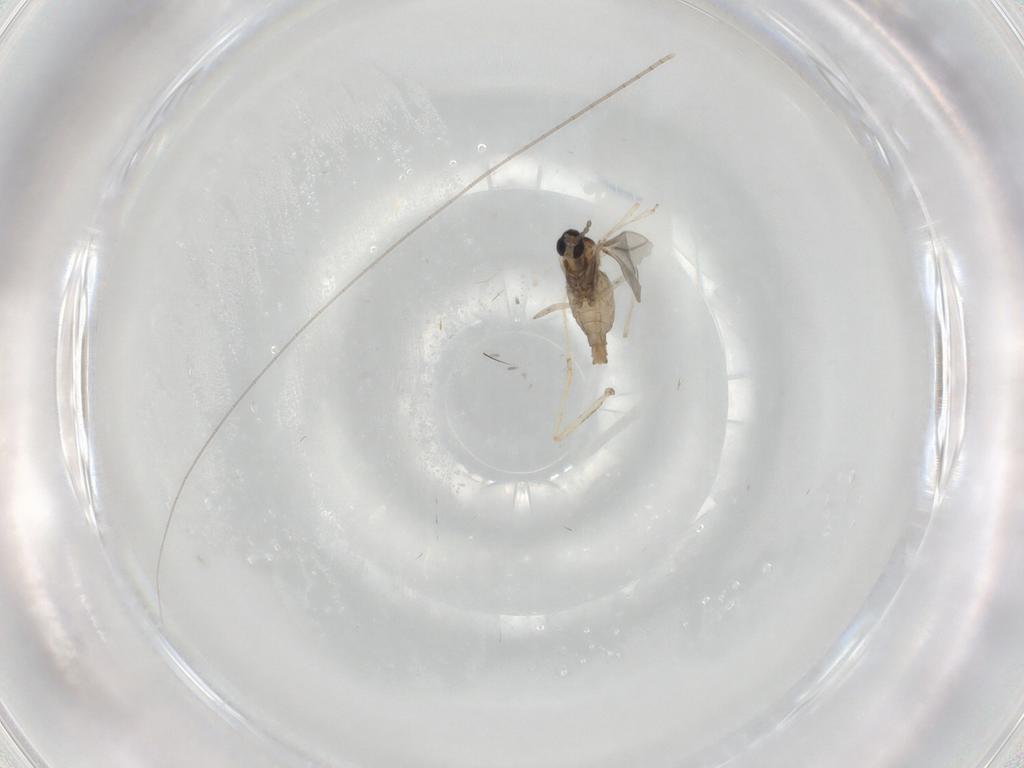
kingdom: Animalia
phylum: Arthropoda
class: Insecta
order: Diptera
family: Cecidomyiidae
